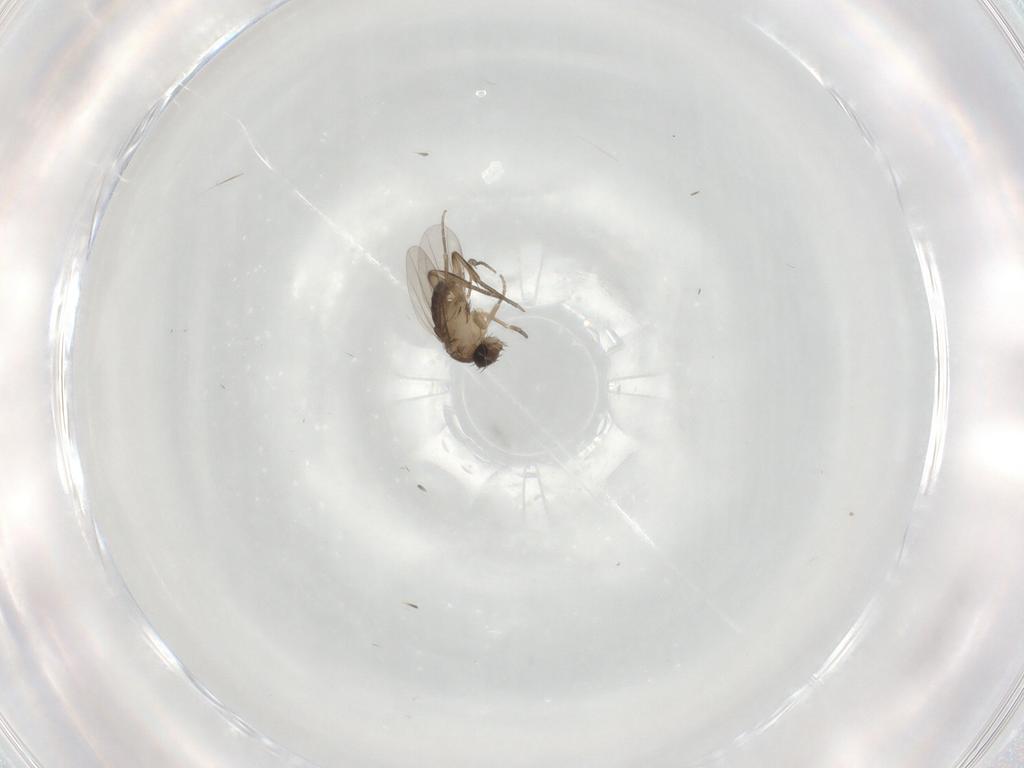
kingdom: Animalia
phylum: Arthropoda
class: Insecta
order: Diptera
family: Phoridae
